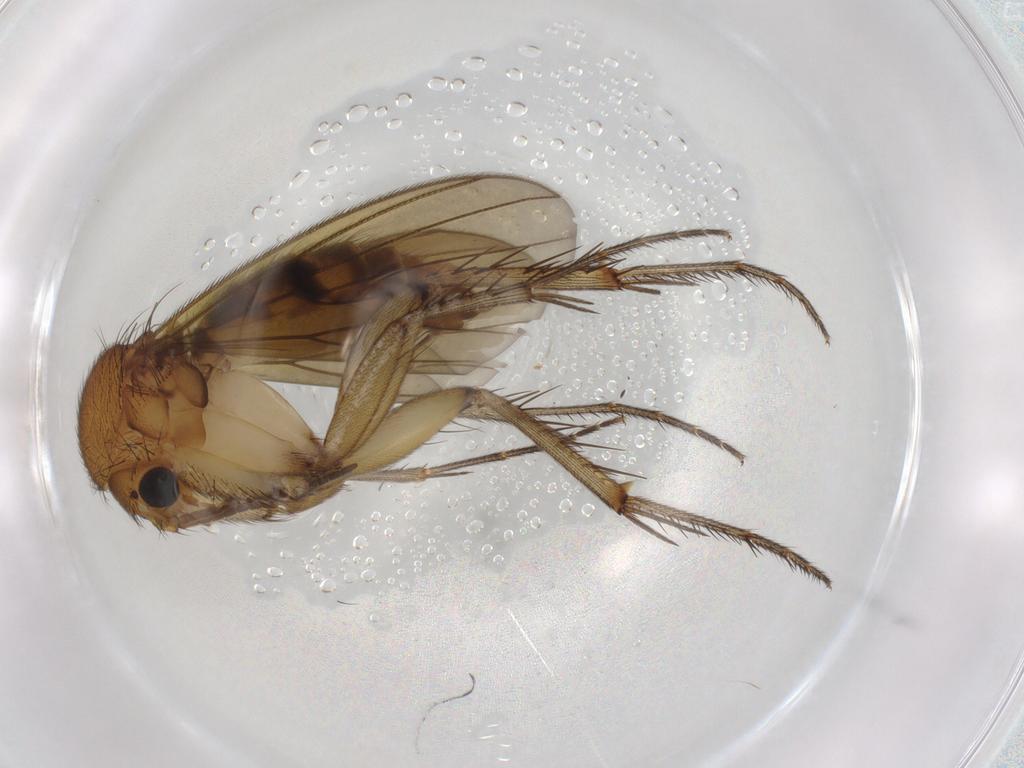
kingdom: Animalia
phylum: Arthropoda
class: Insecta
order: Diptera
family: Mycetophilidae
